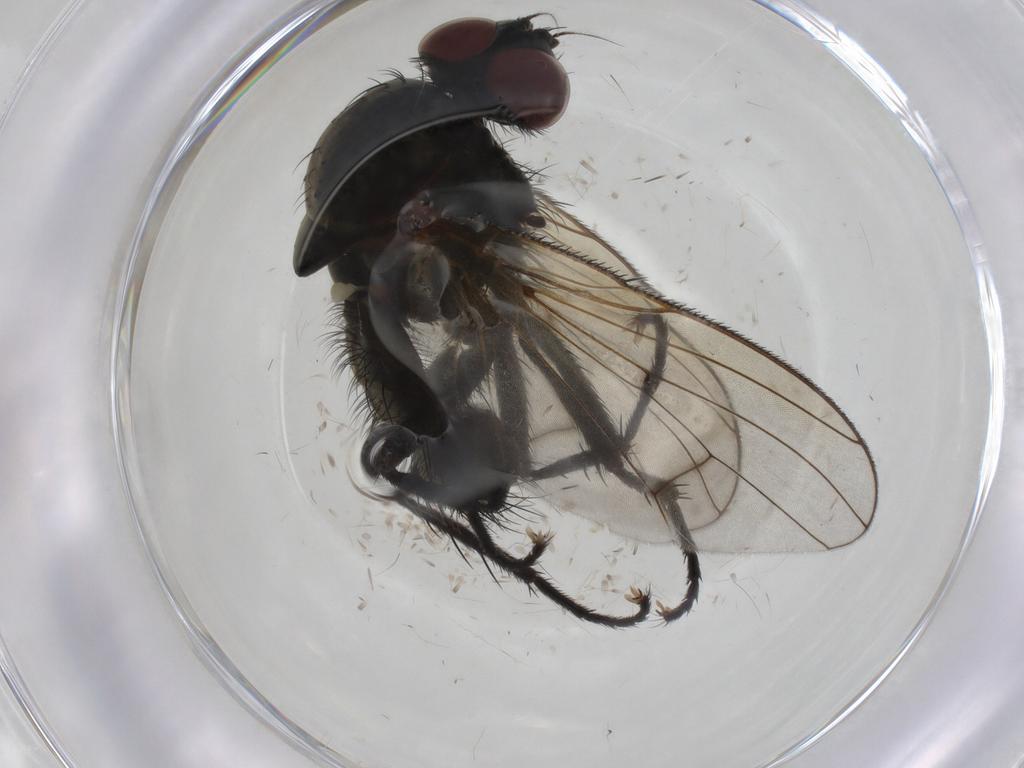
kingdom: Animalia
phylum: Arthropoda
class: Insecta
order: Diptera
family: Anthomyiidae
